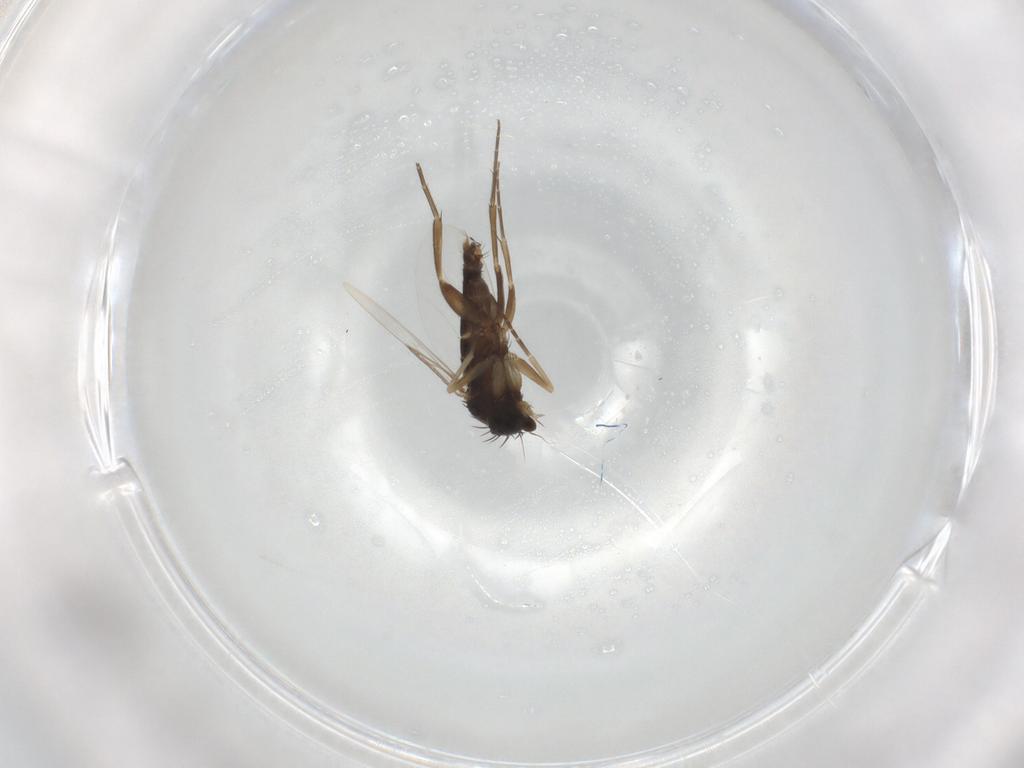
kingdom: Animalia
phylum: Arthropoda
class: Insecta
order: Diptera
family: Phoridae
